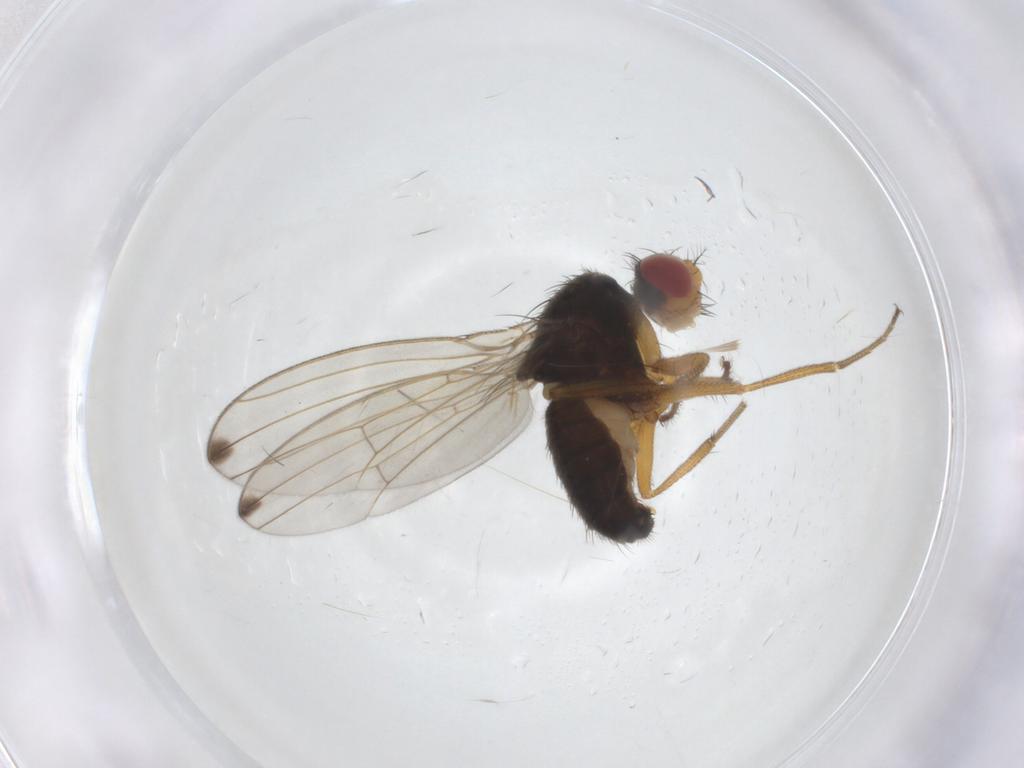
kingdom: Animalia
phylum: Arthropoda
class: Insecta
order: Diptera
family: Drosophilidae
